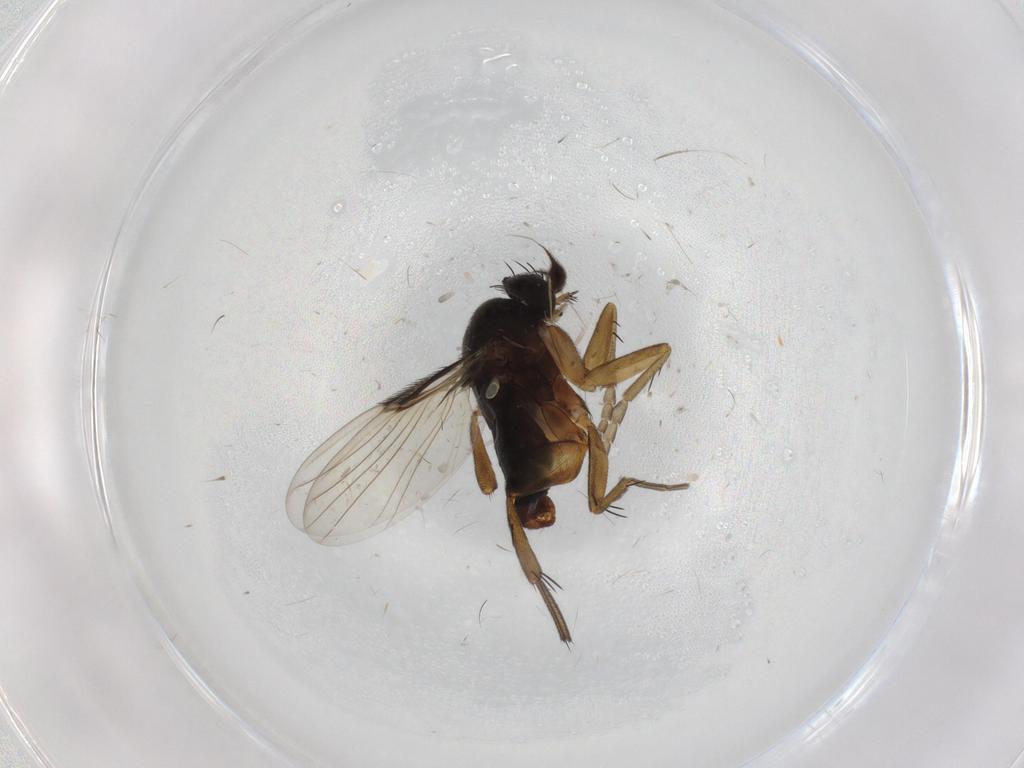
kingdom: Animalia
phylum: Arthropoda
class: Insecta
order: Diptera
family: Phoridae
